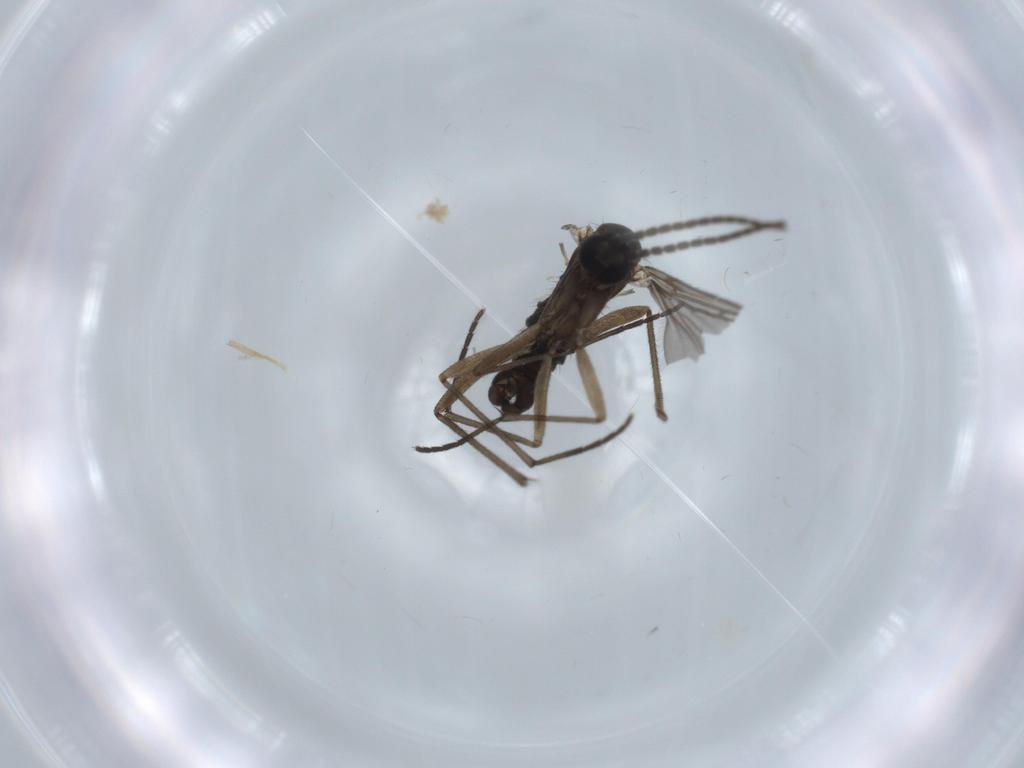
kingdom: Animalia
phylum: Arthropoda
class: Insecta
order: Diptera
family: Sciaridae
